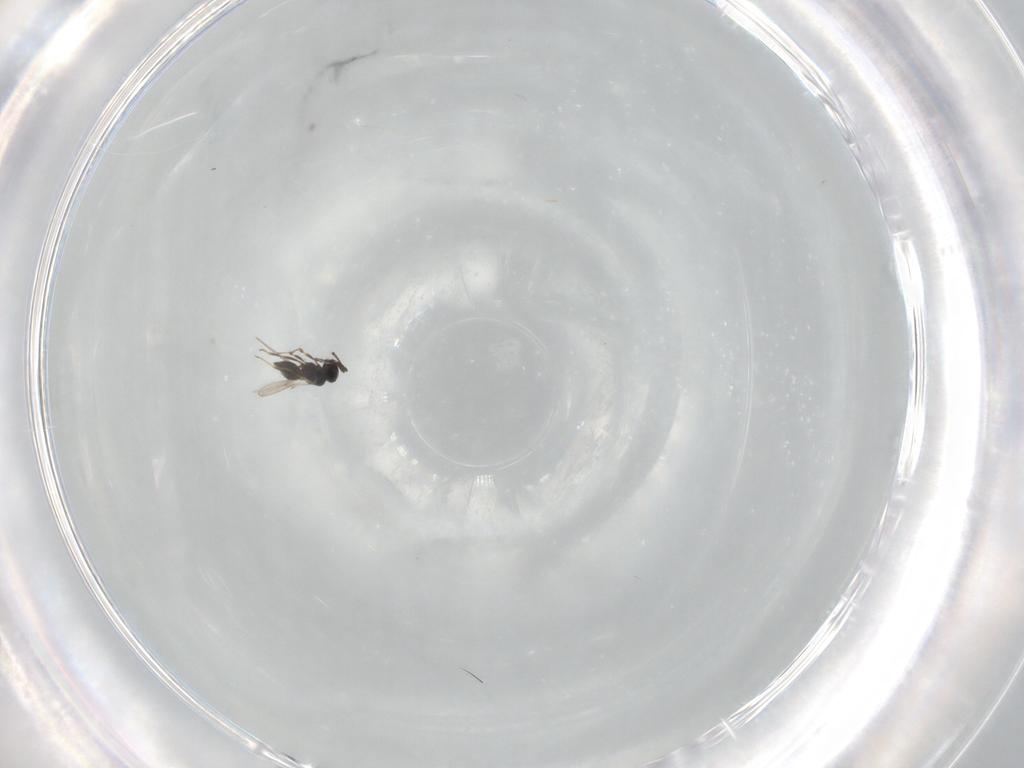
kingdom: Animalia
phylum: Arthropoda
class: Insecta
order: Hymenoptera
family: Scelionidae
